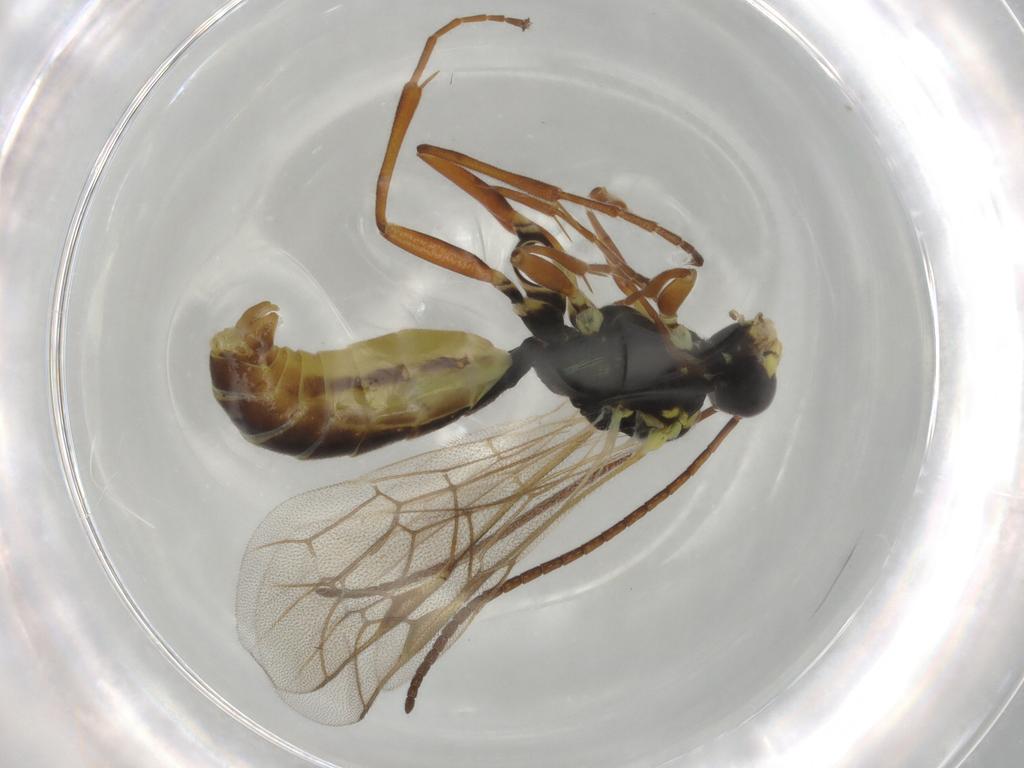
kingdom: Animalia
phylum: Arthropoda
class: Insecta
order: Hymenoptera
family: Ichneumonidae
